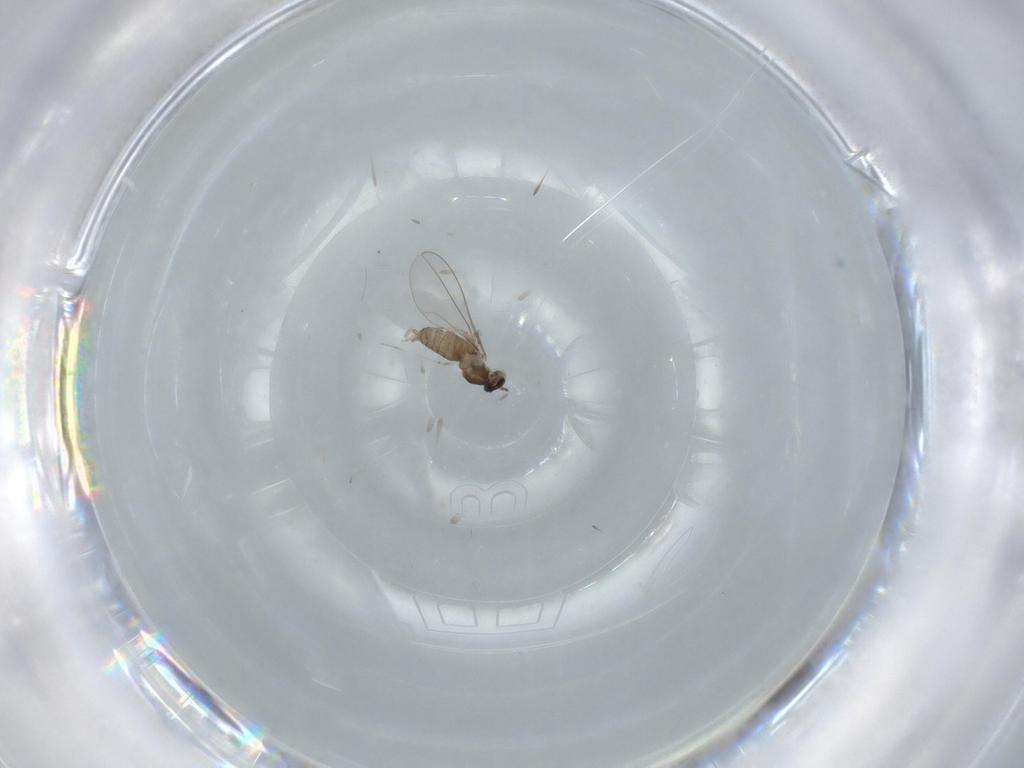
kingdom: Animalia
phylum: Arthropoda
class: Insecta
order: Diptera
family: Cecidomyiidae
